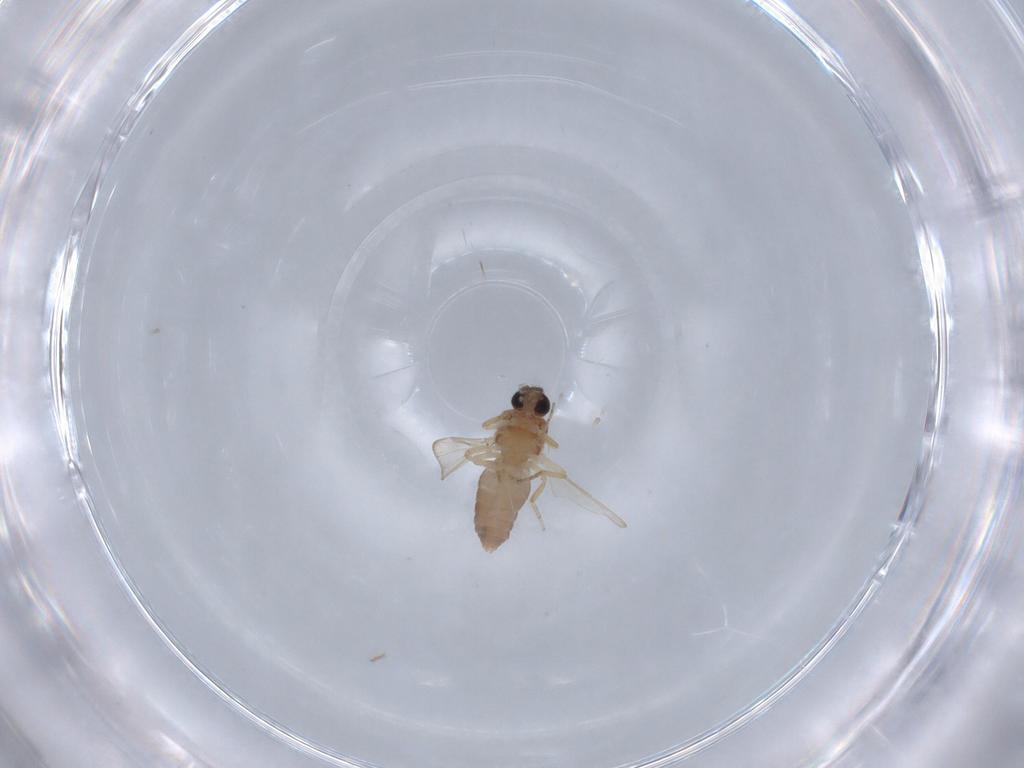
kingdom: Animalia
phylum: Arthropoda
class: Insecta
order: Diptera
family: Ceratopogonidae
